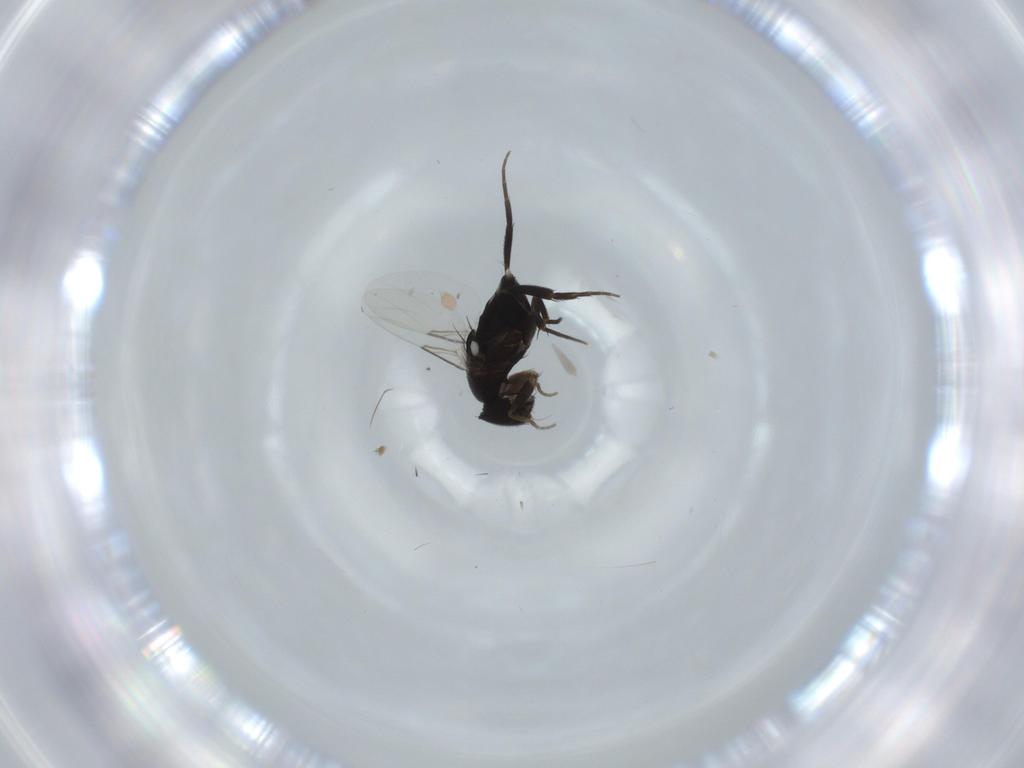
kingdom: Animalia
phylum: Arthropoda
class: Insecta
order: Diptera
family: Phoridae
